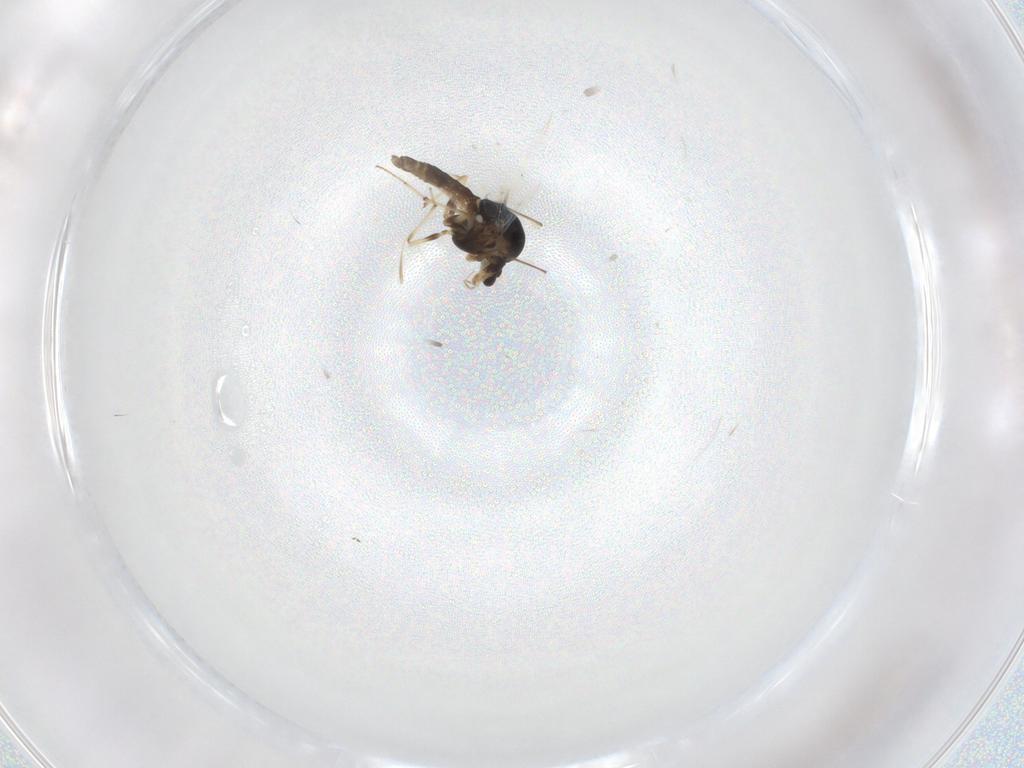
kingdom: Animalia
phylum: Arthropoda
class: Insecta
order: Diptera
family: Chironomidae
